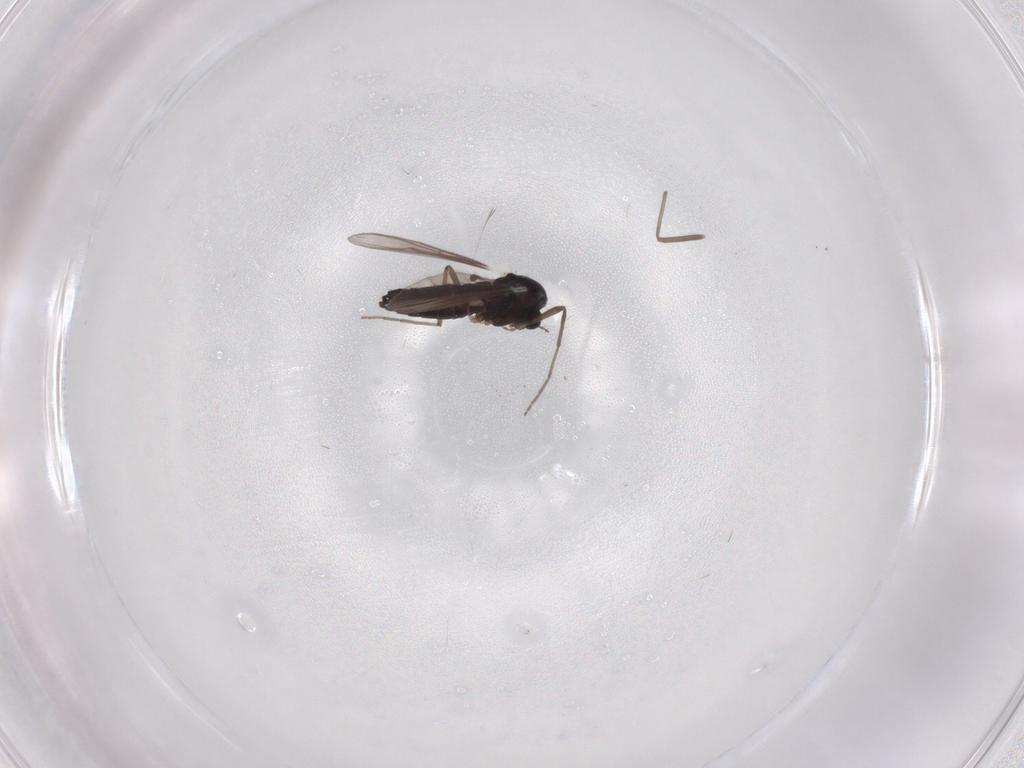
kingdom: Animalia
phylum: Arthropoda
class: Insecta
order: Diptera
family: Chironomidae
